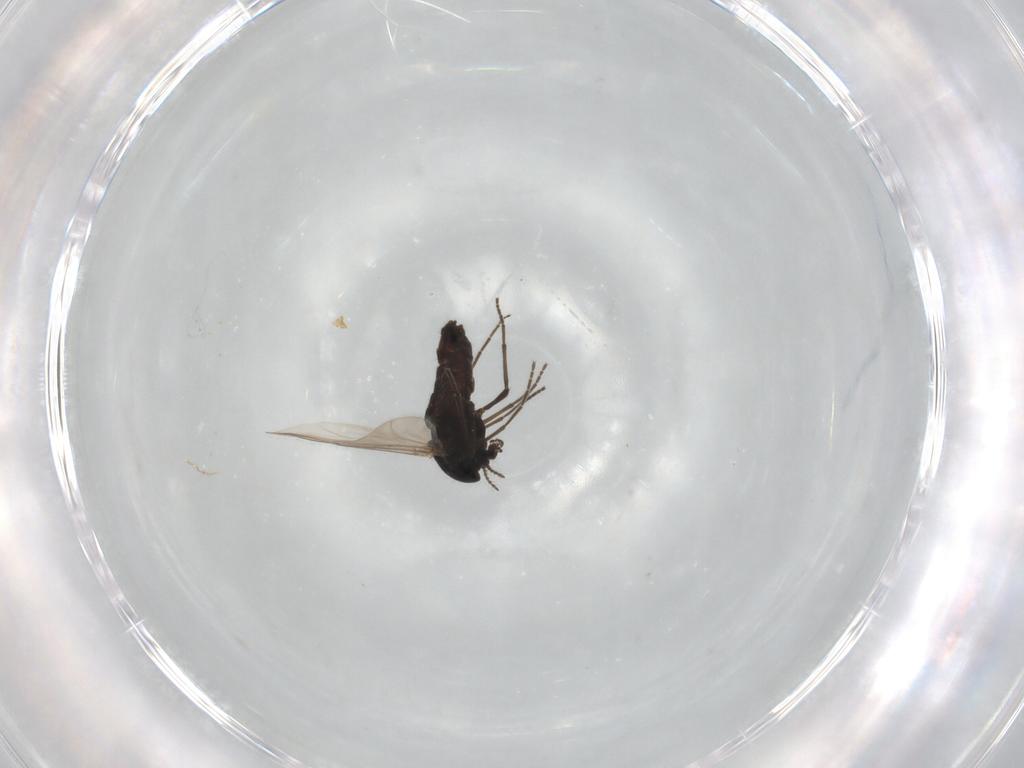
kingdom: Animalia
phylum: Arthropoda
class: Insecta
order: Diptera
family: Chironomidae
